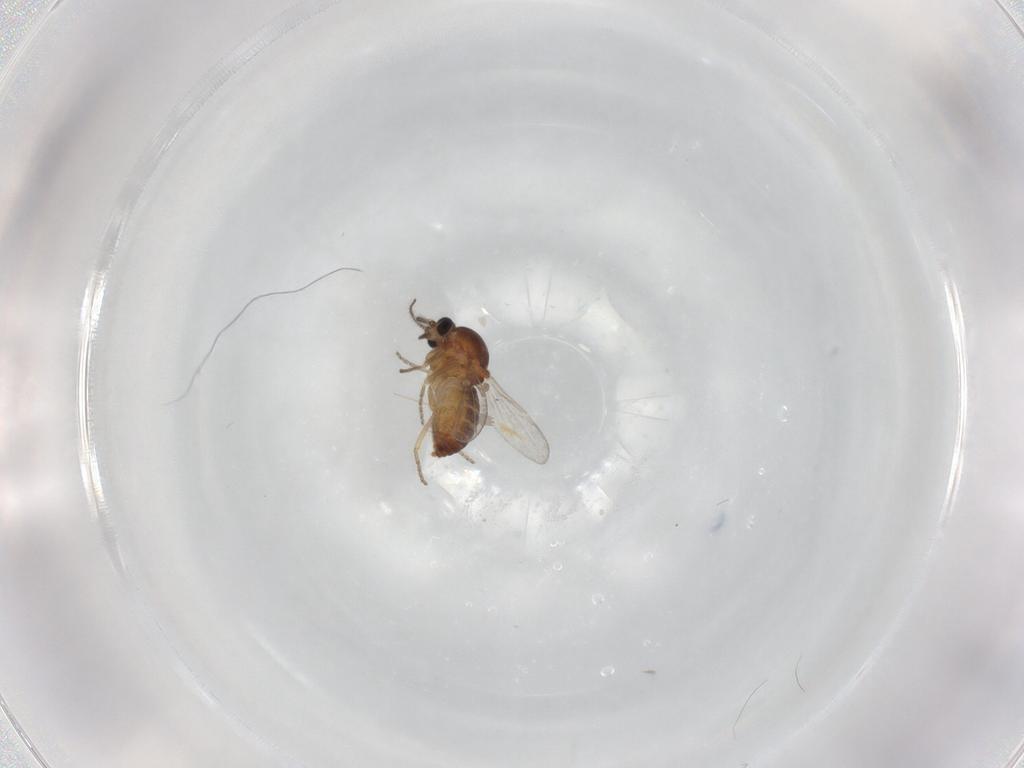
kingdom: Animalia
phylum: Arthropoda
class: Insecta
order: Diptera
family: Ceratopogonidae
